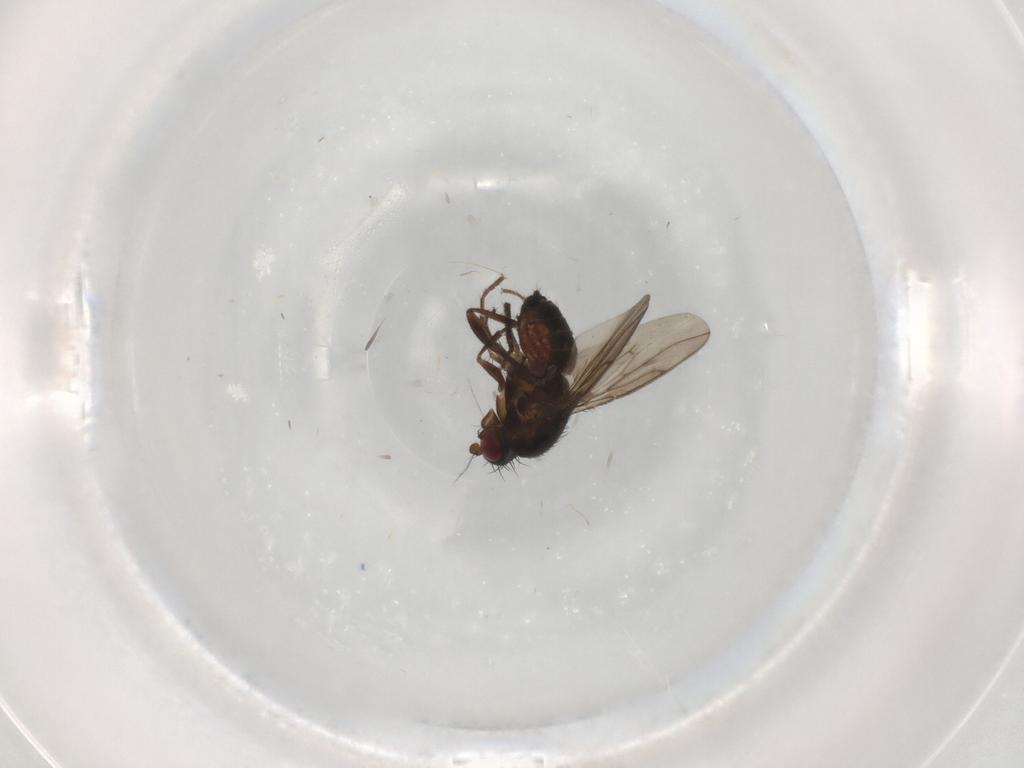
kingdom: Animalia
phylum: Arthropoda
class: Insecta
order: Diptera
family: Sphaeroceridae
